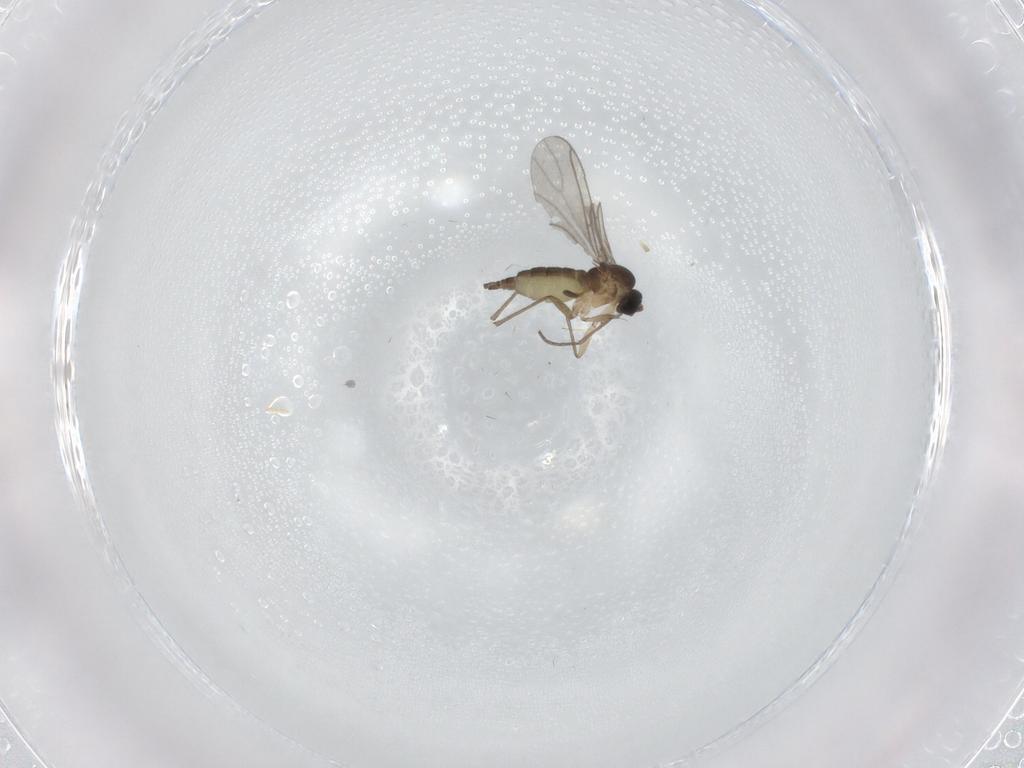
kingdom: Animalia
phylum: Arthropoda
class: Insecta
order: Diptera
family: Sciaridae
